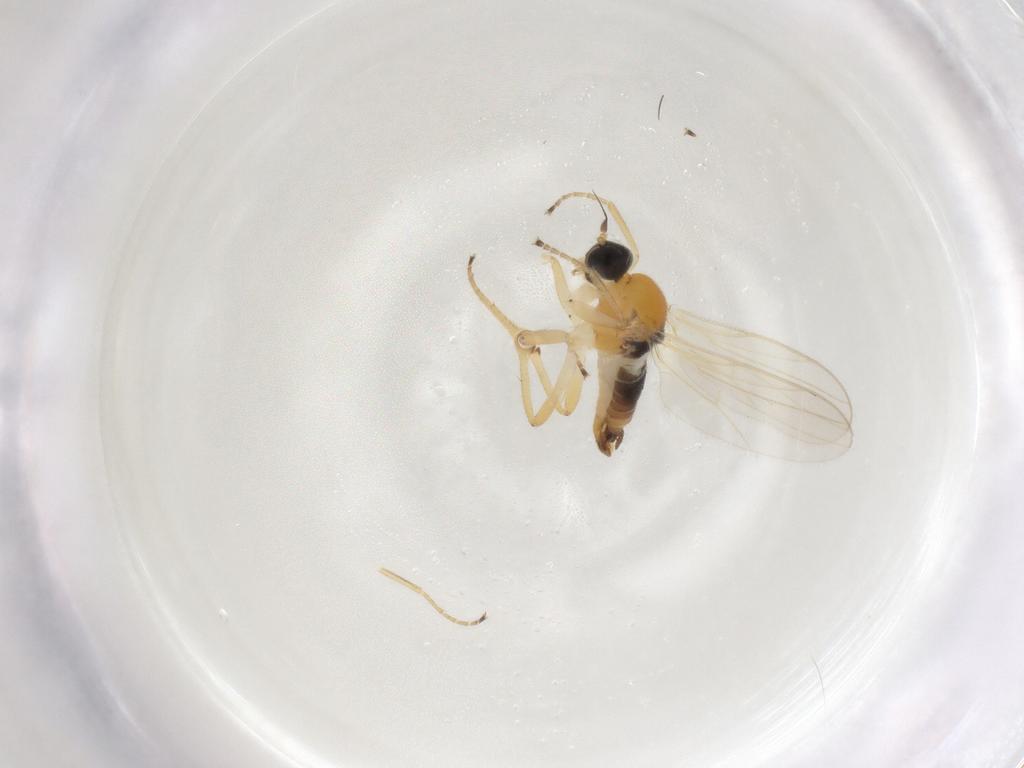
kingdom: Animalia
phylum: Arthropoda
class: Insecta
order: Diptera
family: Hybotidae
